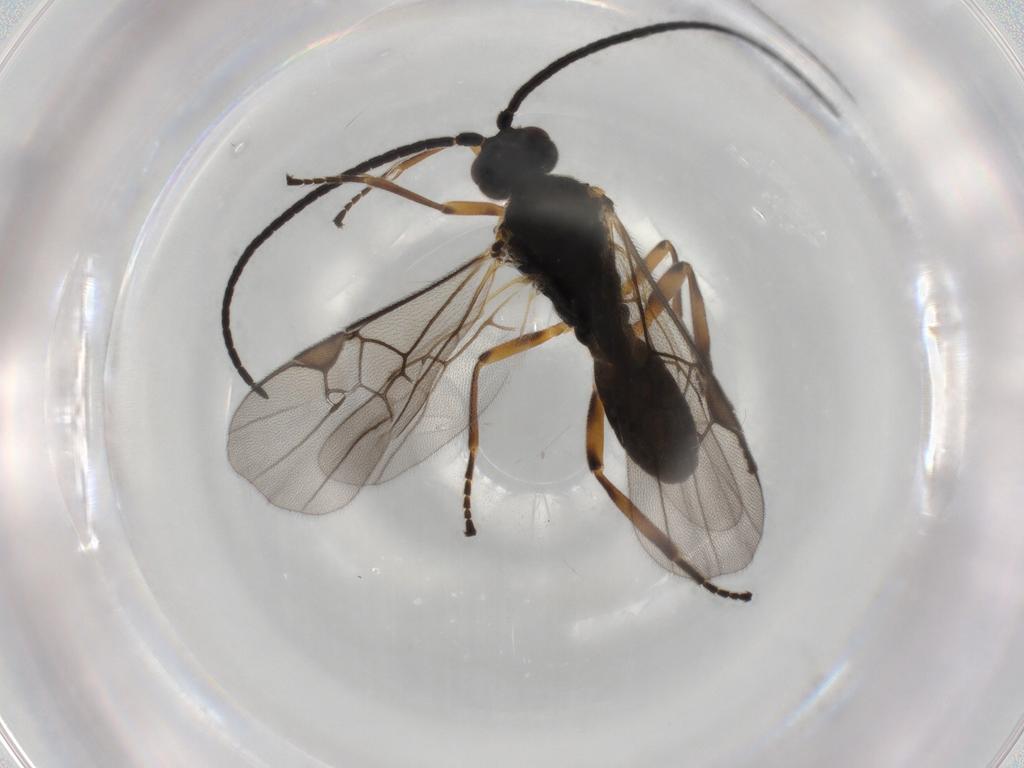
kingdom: Animalia
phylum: Arthropoda
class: Insecta
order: Hymenoptera
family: Braconidae
